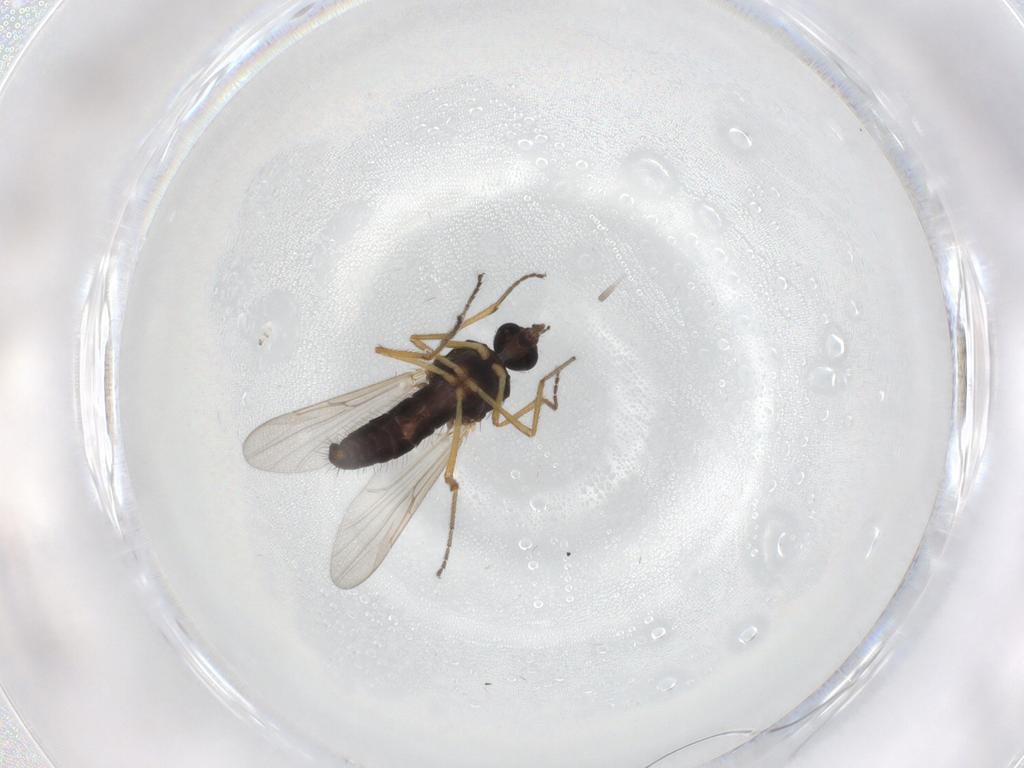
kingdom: Animalia
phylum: Arthropoda
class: Insecta
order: Diptera
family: Ceratopogonidae
